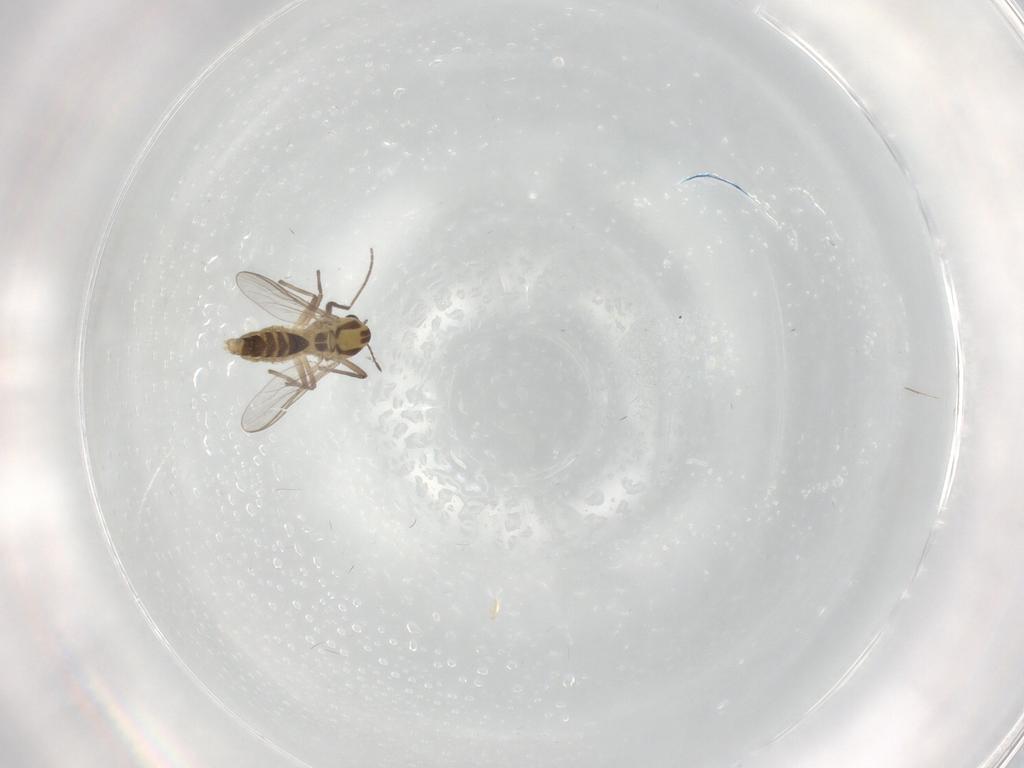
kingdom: Animalia
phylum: Arthropoda
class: Insecta
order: Diptera
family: Chironomidae
